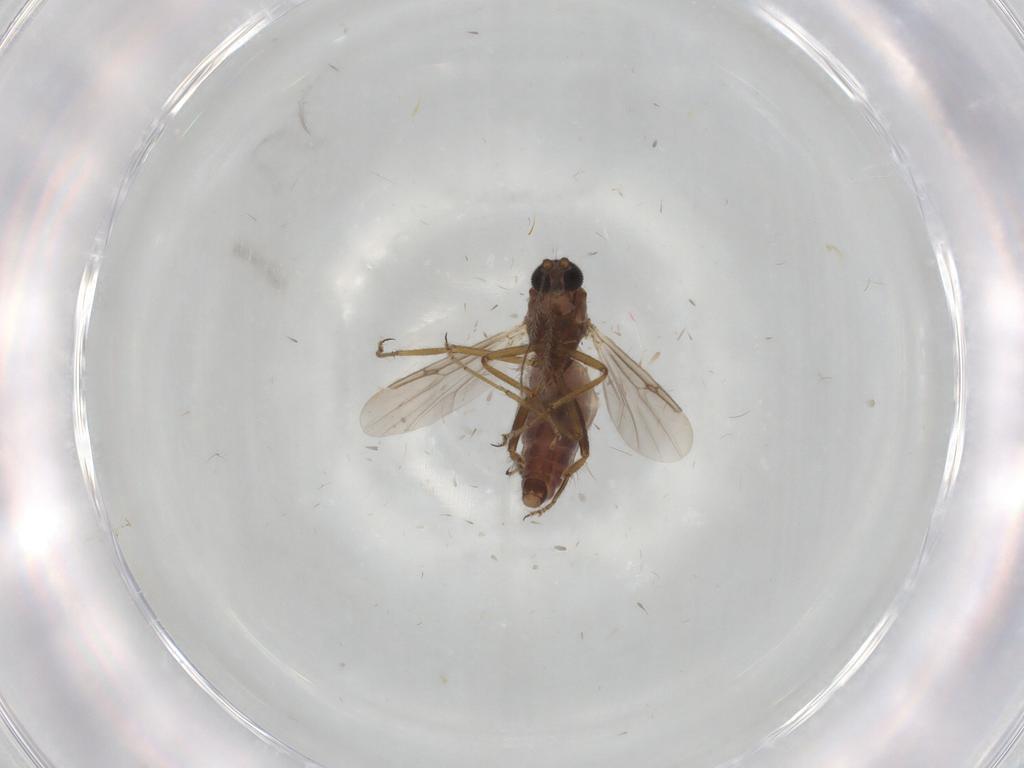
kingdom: Animalia
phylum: Arthropoda
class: Insecta
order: Diptera
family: Ceratopogonidae
